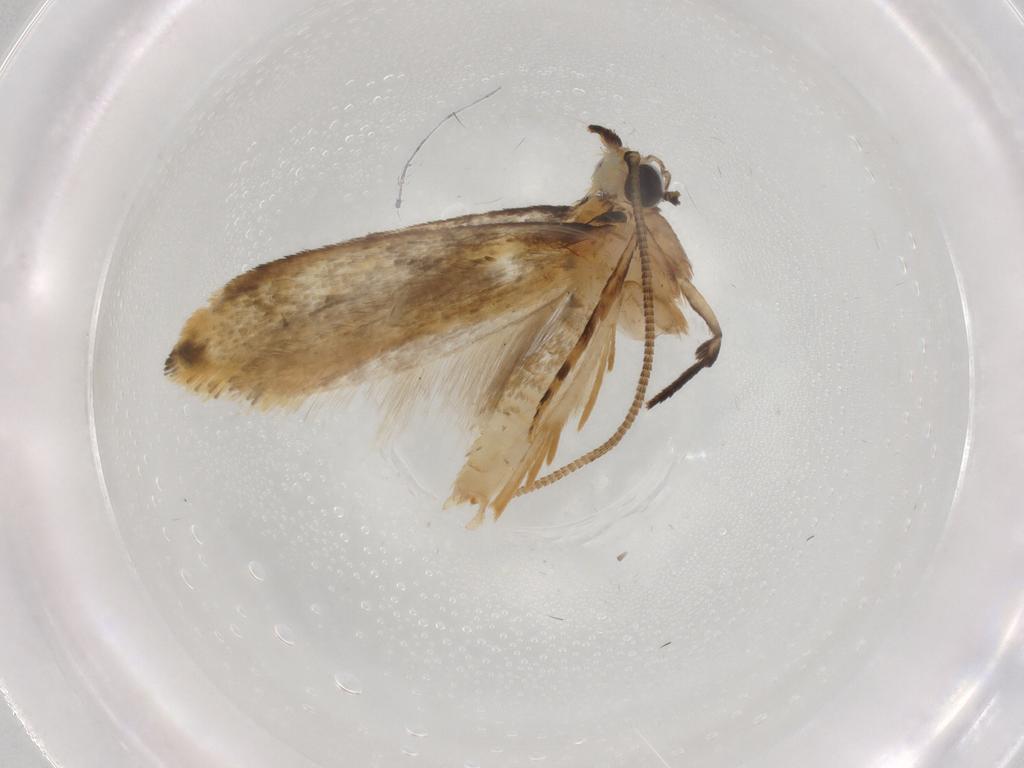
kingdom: Animalia
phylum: Arthropoda
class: Insecta
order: Lepidoptera
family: Tineidae
